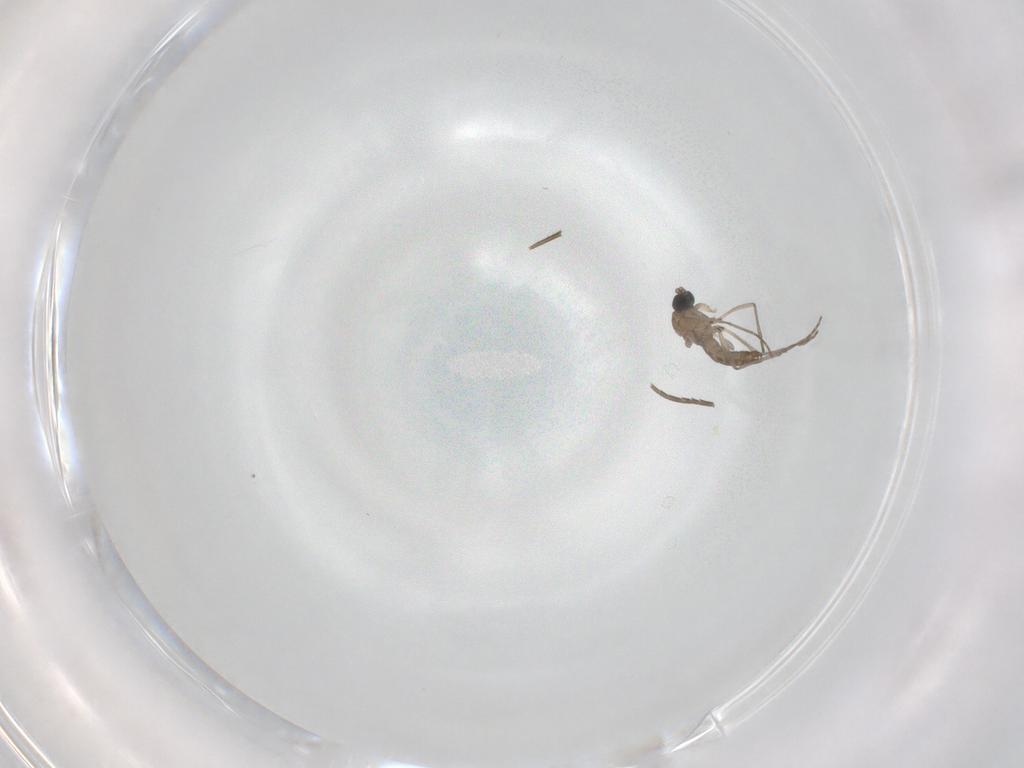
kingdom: Animalia
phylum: Arthropoda
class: Insecta
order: Diptera
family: Sciaridae
